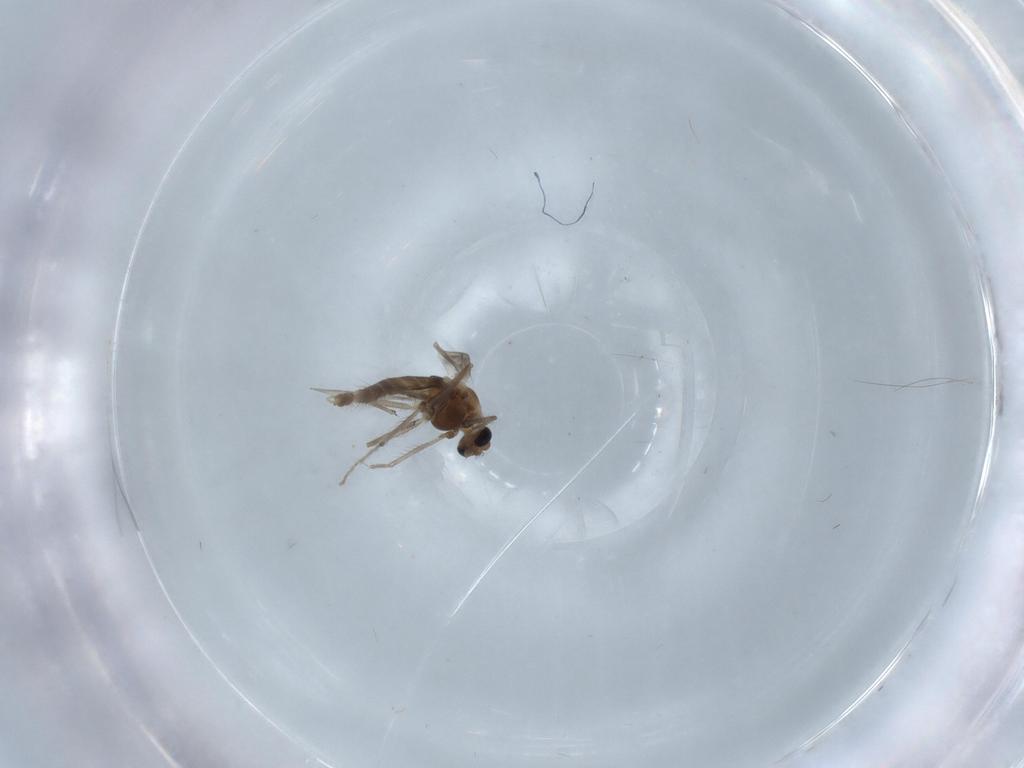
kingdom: Animalia
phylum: Arthropoda
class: Insecta
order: Diptera
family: Chironomidae
